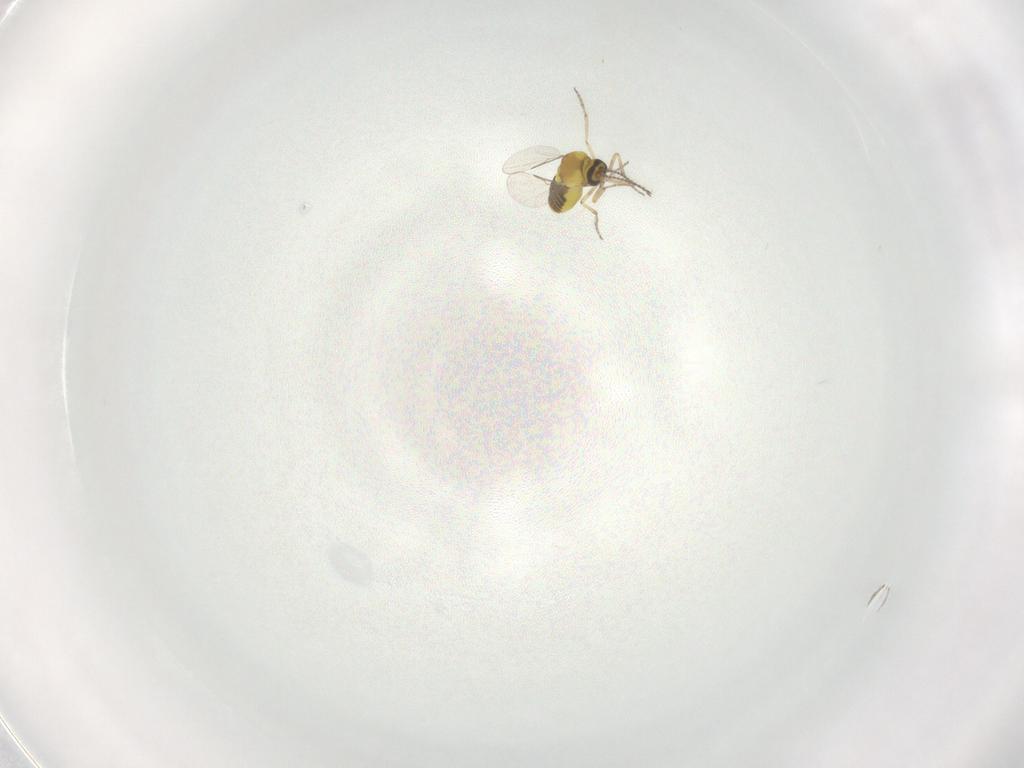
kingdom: Animalia
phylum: Arthropoda
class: Insecta
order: Diptera
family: Ceratopogonidae
